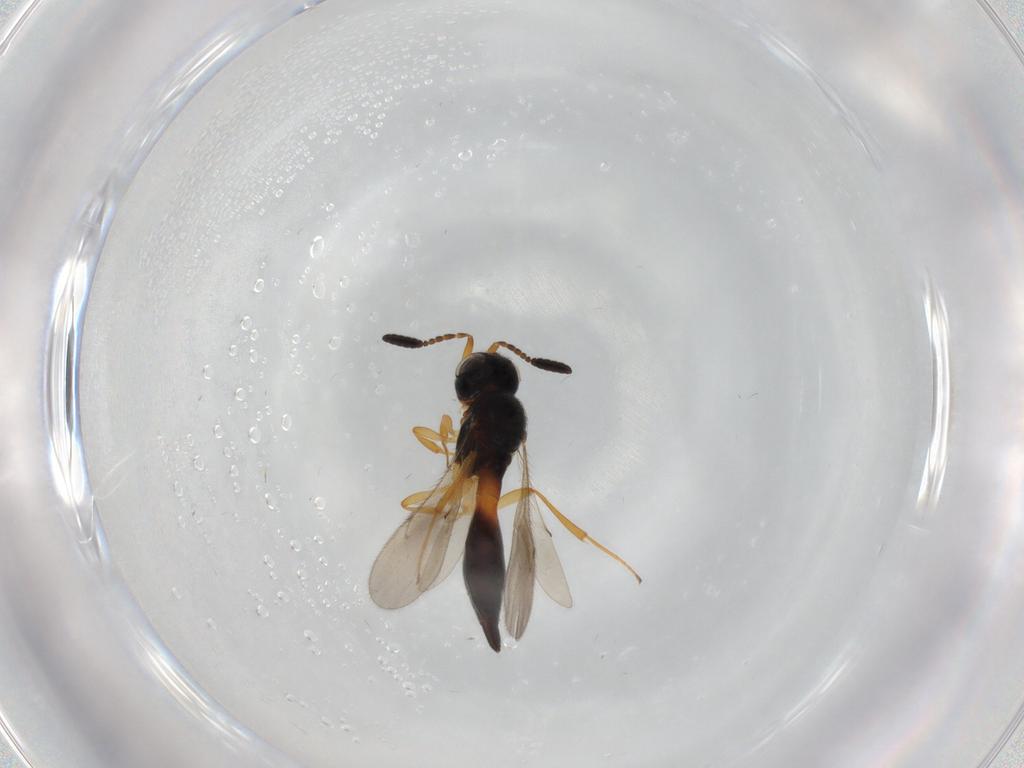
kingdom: Animalia
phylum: Arthropoda
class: Insecta
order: Hymenoptera
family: Scelionidae
